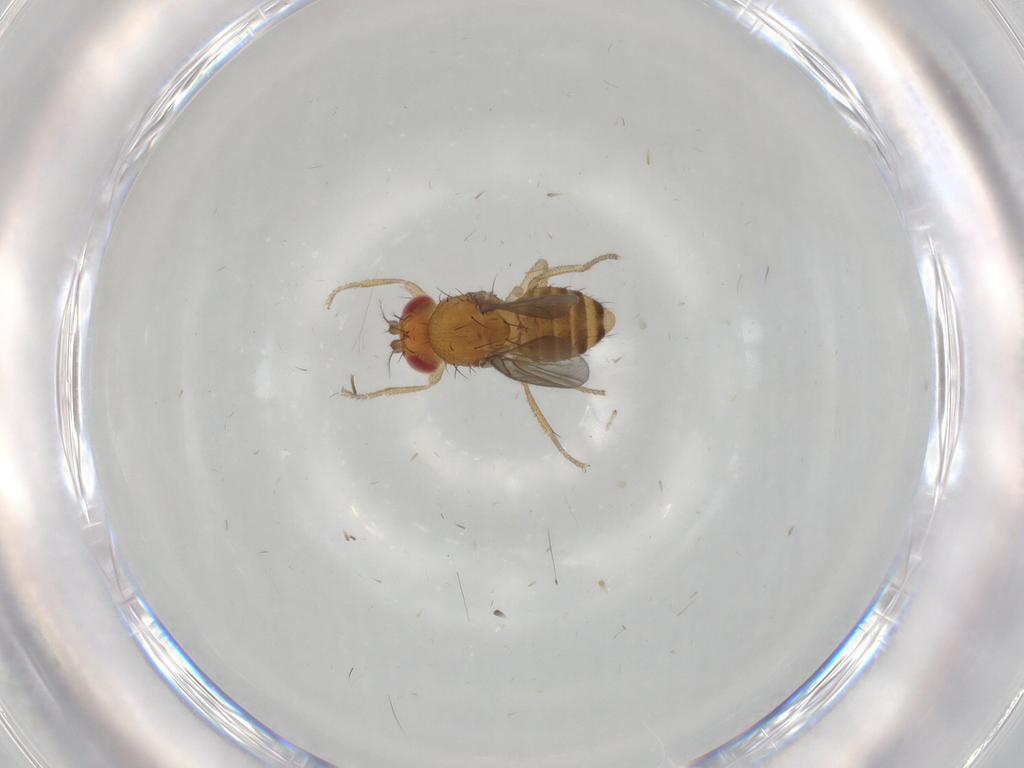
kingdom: Animalia
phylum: Arthropoda
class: Insecta
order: Diptera
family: Drosophilidae
